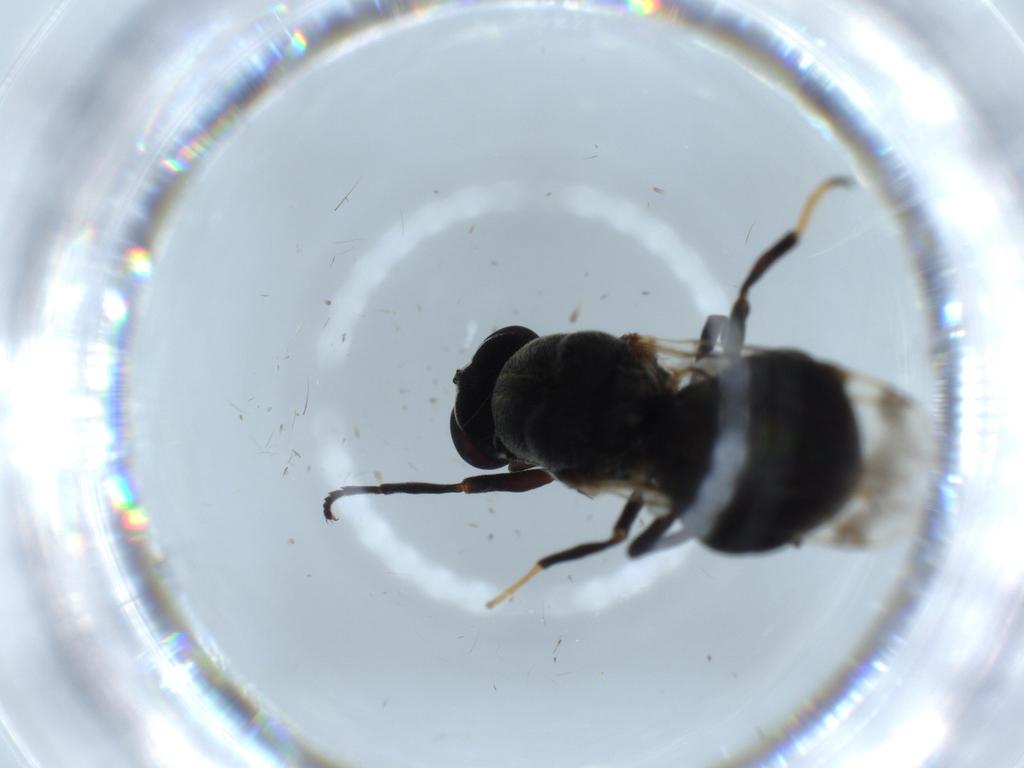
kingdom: Animalia
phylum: Arthropoda
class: Insecta
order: Diptera
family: Stratiomyidae
